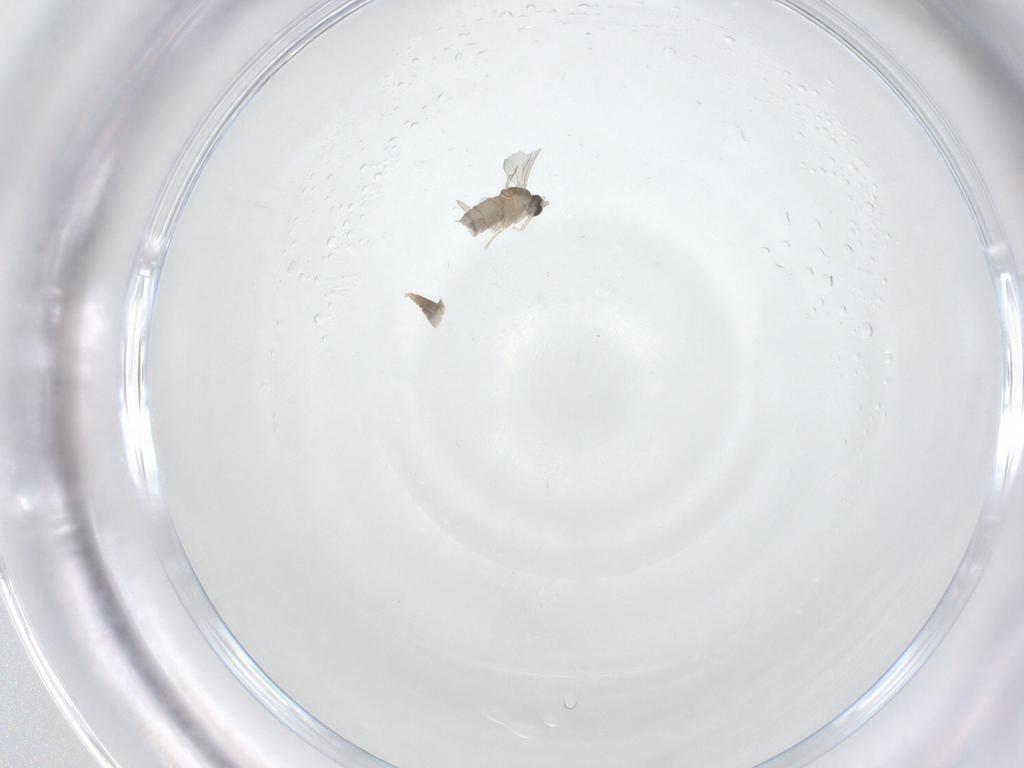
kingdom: Animalia
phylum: Arthropoda
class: Insecta
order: Diptera
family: Cecidomyiidae
